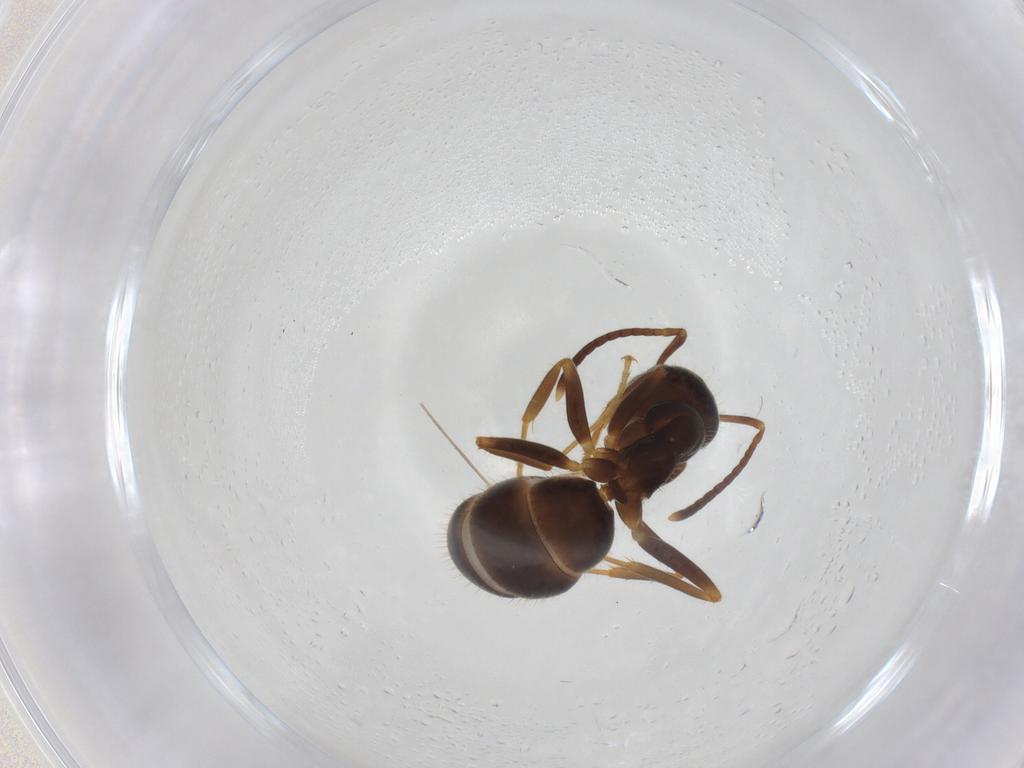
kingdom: Animalia
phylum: Arthropoda
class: Insecta
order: Hymenoptera
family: Formicidae
